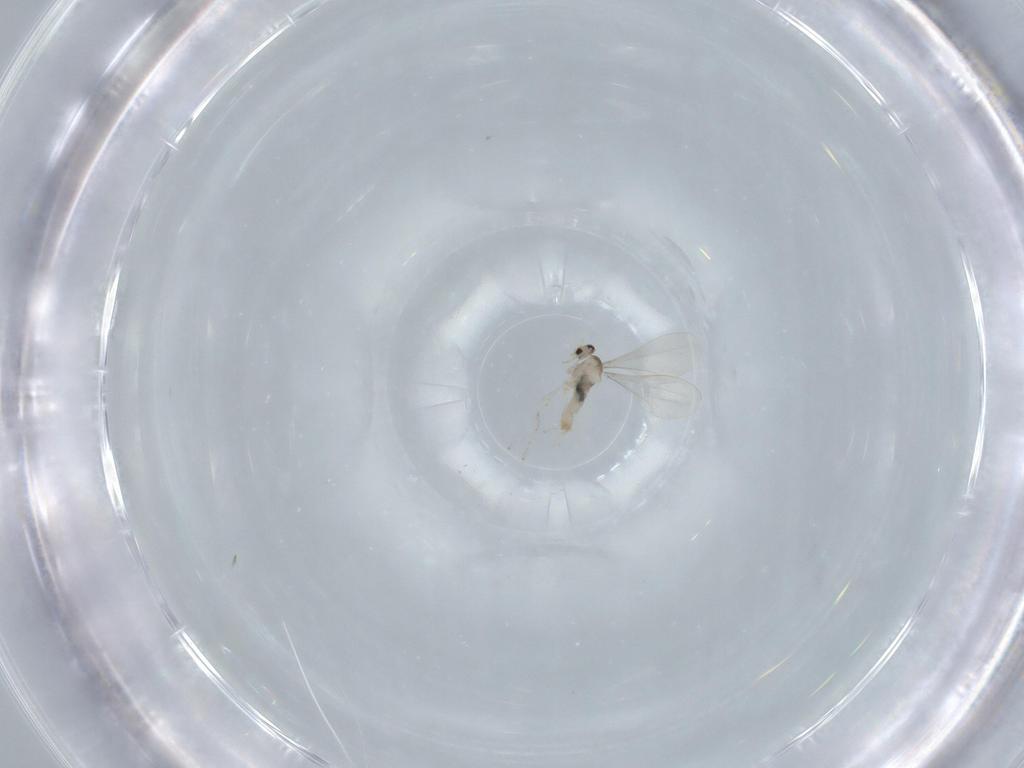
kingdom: Animalia
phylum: Arthropoda
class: Insecta
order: Diptera
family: Cecidomyiidae
